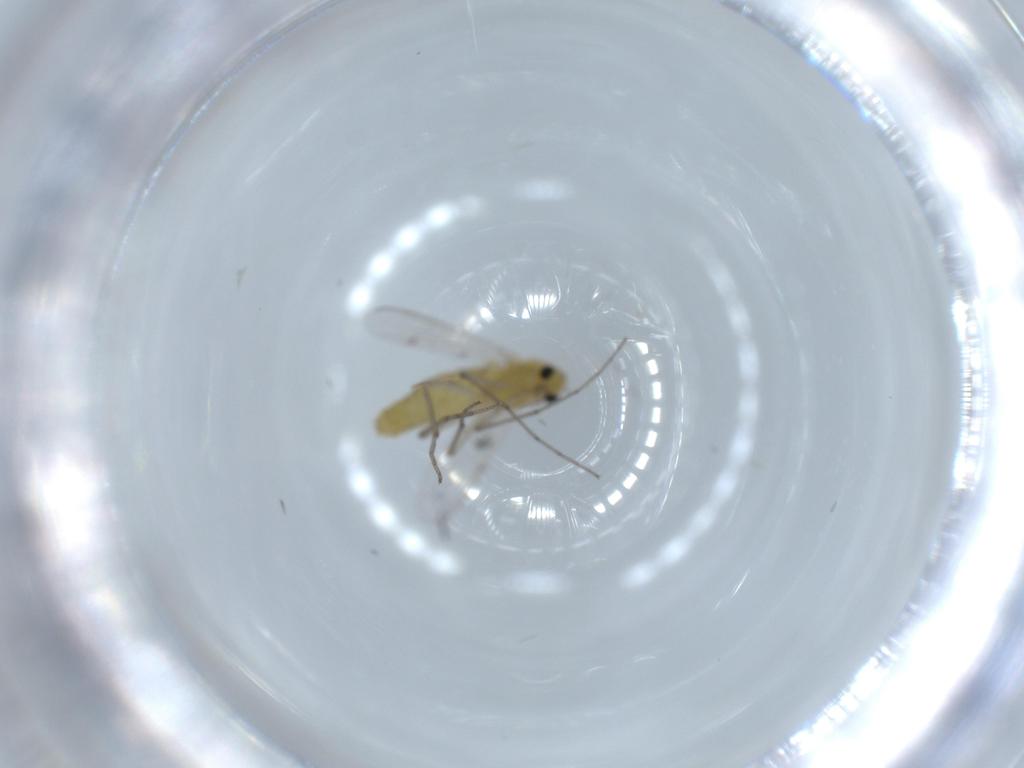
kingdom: Animalia
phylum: Arthropoda
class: Insecta
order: Diptera
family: Chironomidae
